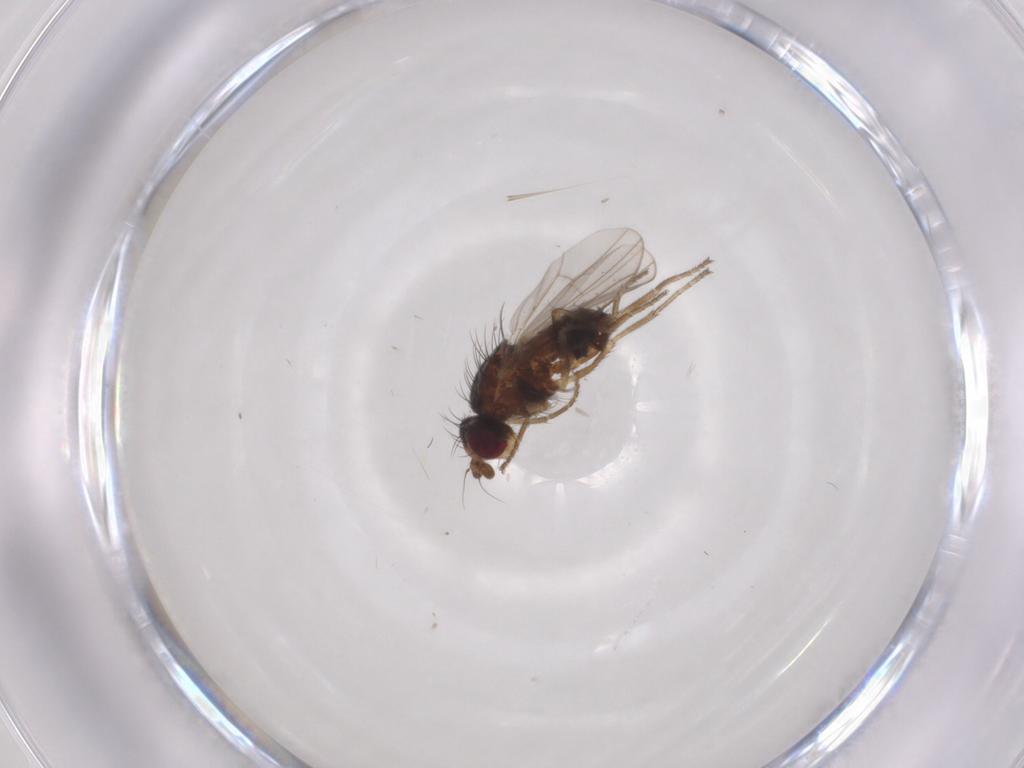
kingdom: Animalia
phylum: Arthropoda
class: Insecta
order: Diptera
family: Heleomyzidae
